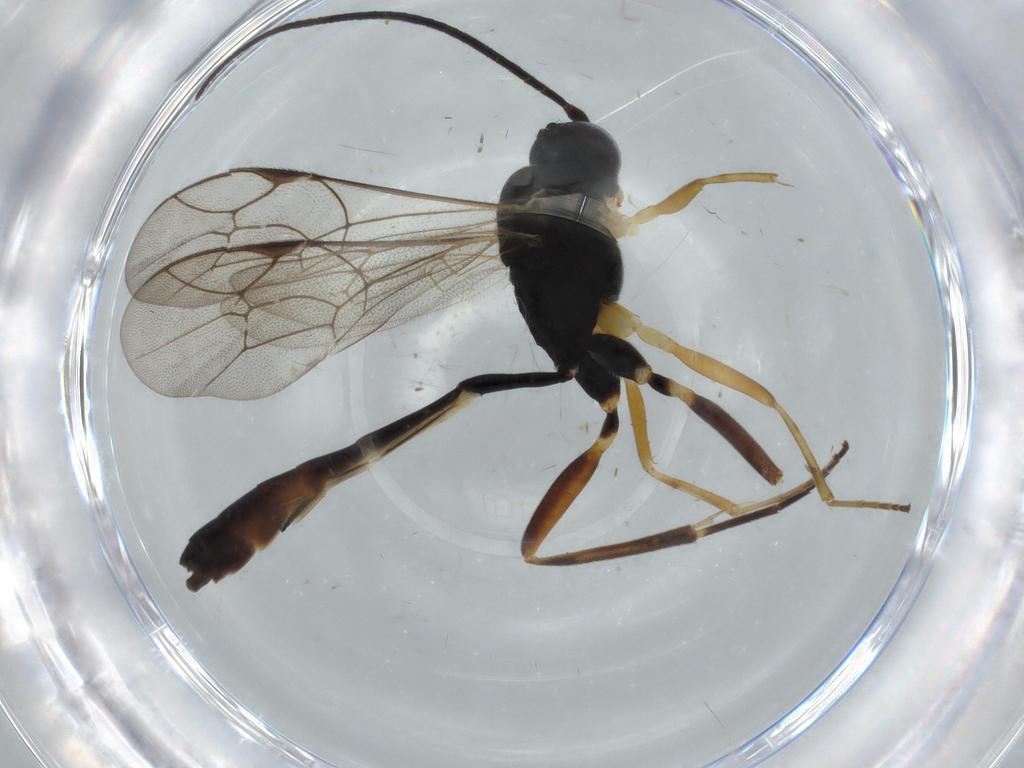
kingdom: Animalia
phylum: Arthropoda
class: Insecta
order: Hymenoptera
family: Ichneumonidae
